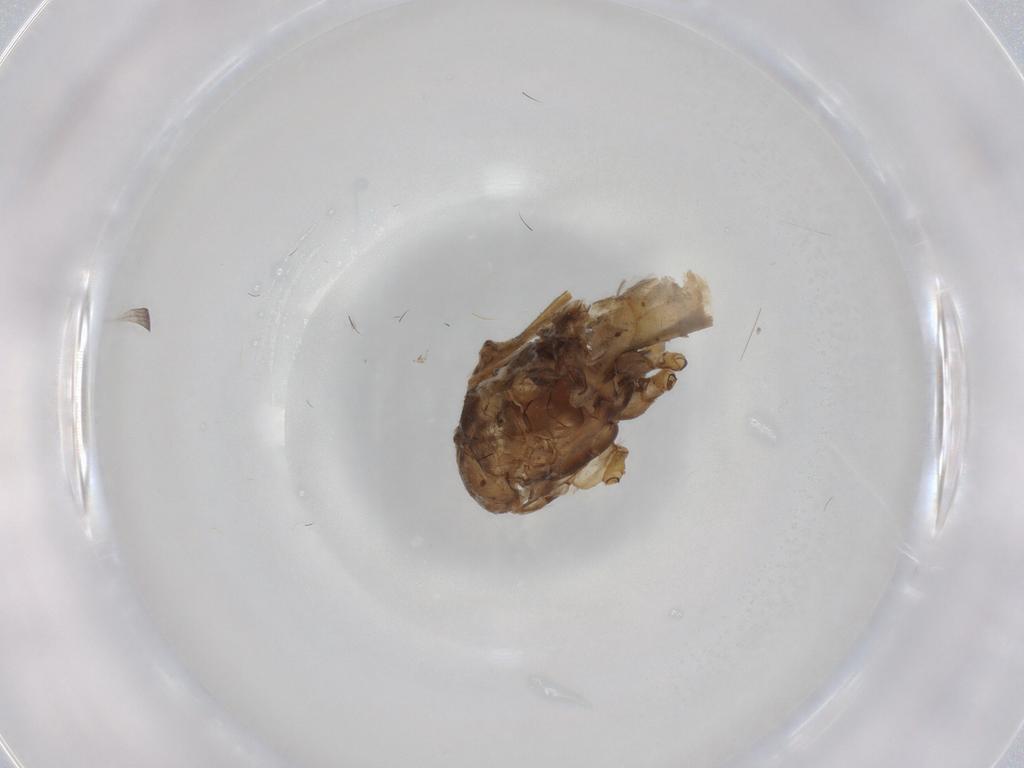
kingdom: Animalia
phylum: Arthropoda
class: Insecta
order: Diptera
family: Dolichopodidae
